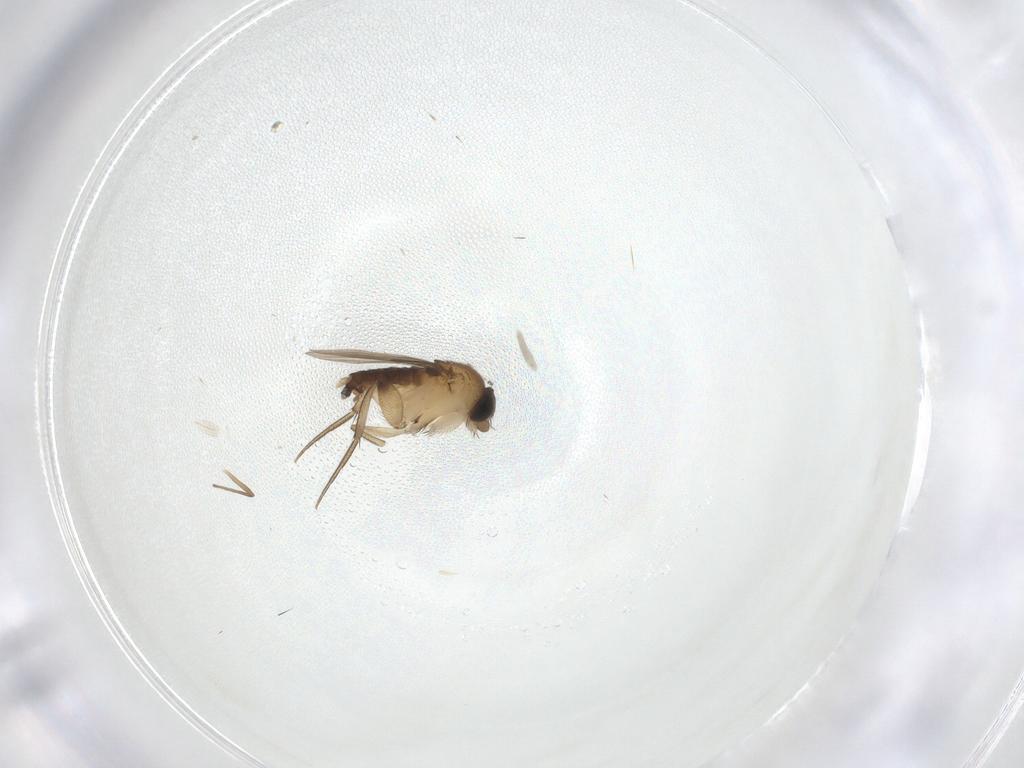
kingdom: Animalia
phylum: Arthropoda
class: Insecta
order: Diptera
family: Phoridae
